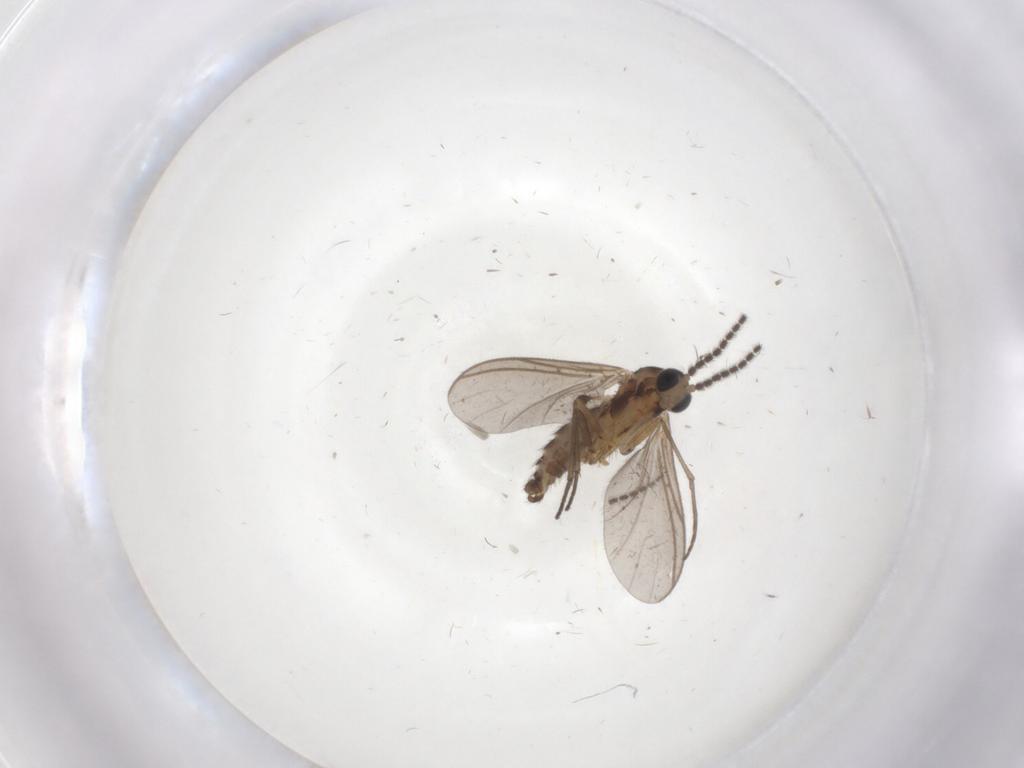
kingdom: Animalia
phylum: Arthropoda
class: Insecta
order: Diptera
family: Sciaridae
